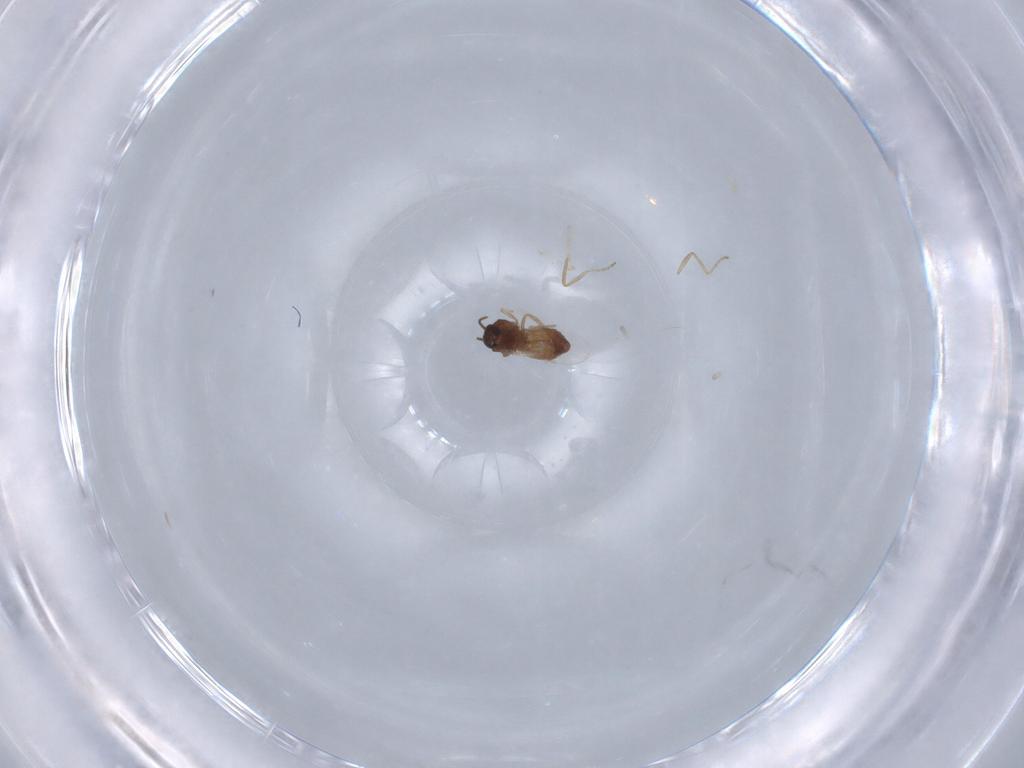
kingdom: Animalia
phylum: Arthropoda
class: Insecta
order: Diptera
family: Ceratopogonidae
